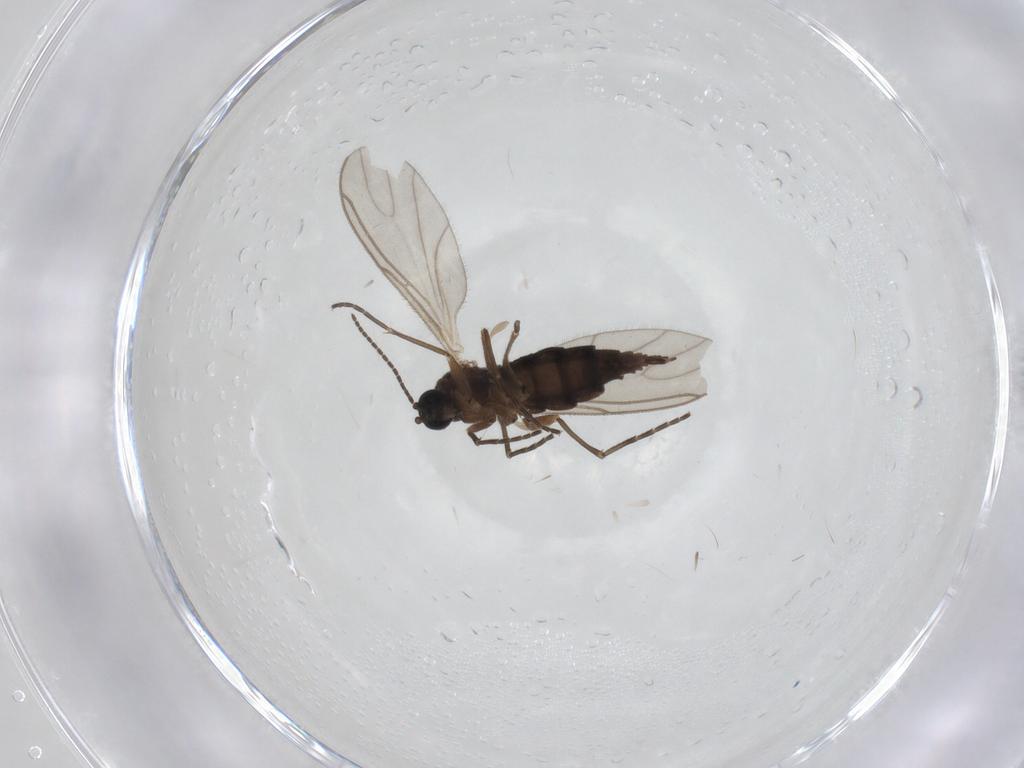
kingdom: Animalia
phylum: Arthropoda
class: Insecta
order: Diptera
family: Sciaridae
